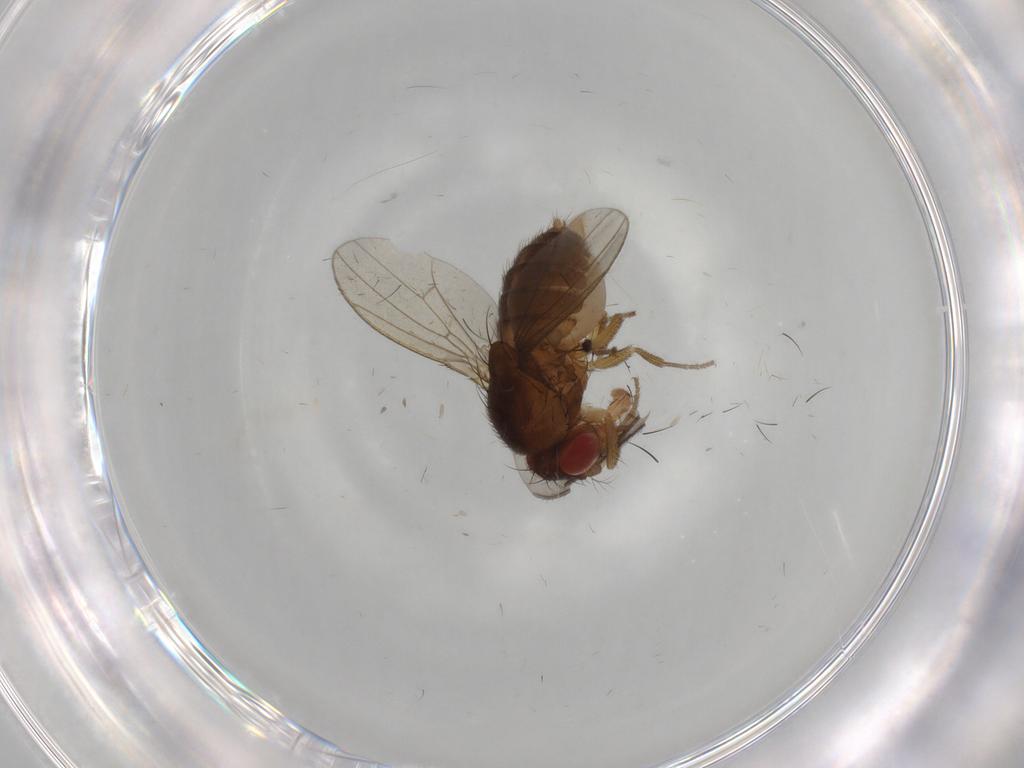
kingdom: Animalia
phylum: Arthropoda
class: Insecta
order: Diptera
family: Drosophilidae
